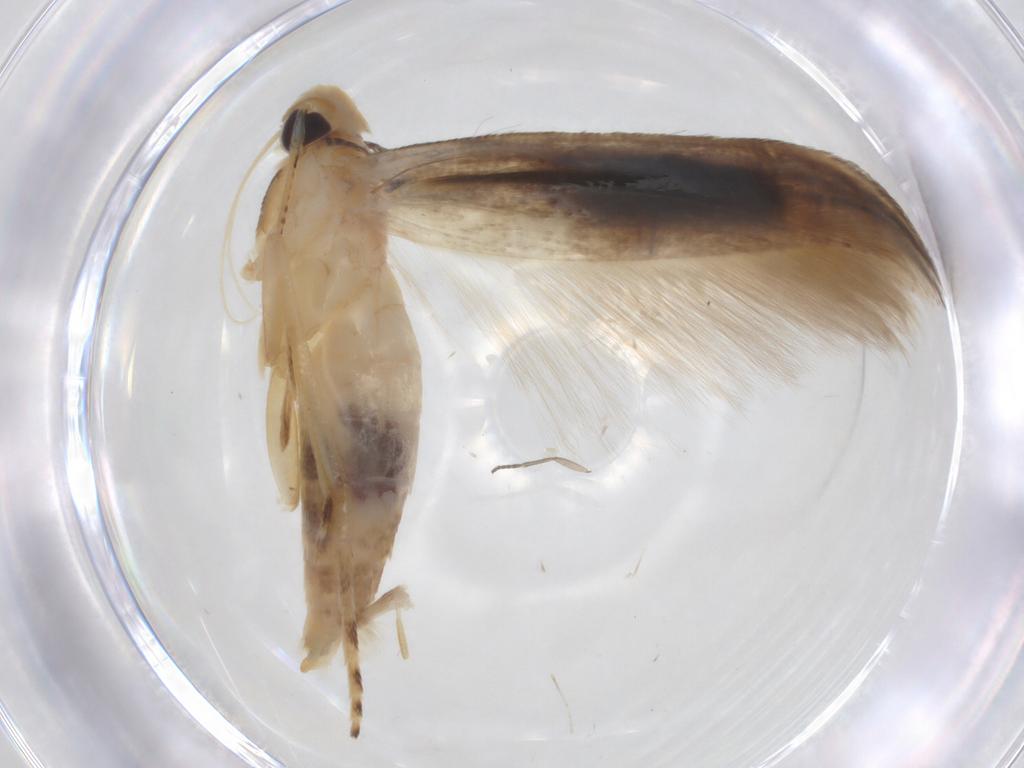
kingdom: Animalia
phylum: Arthropoda
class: Insecta
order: Lepidoptera
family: Momphidae
